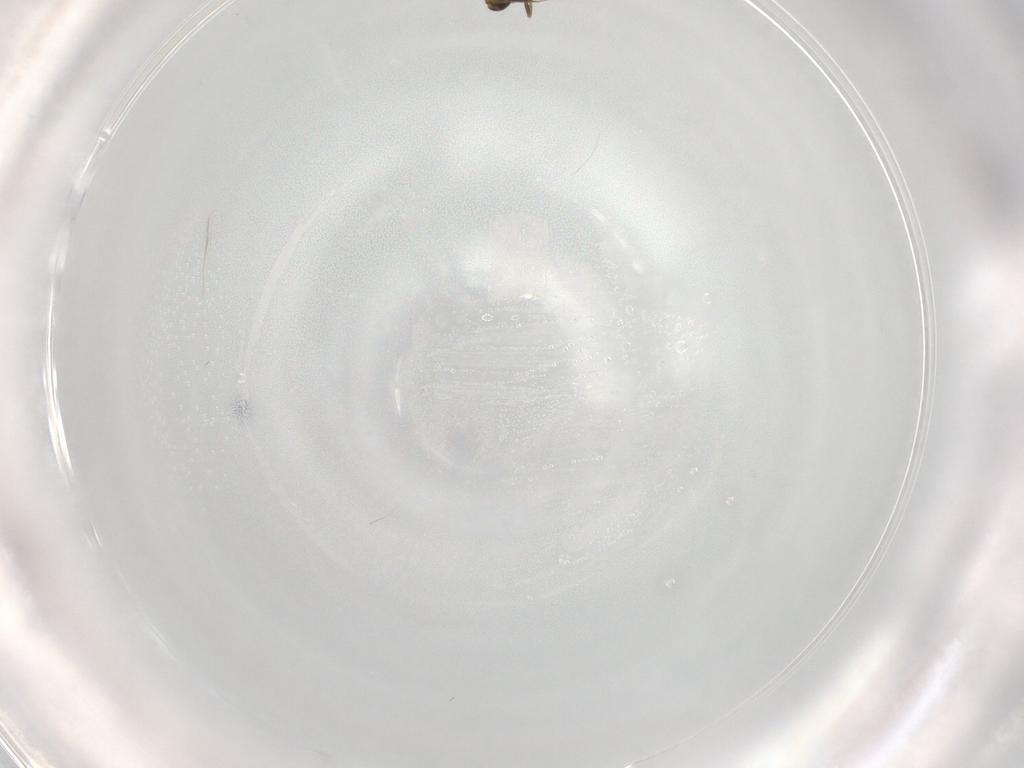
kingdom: Animalia
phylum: Arthropoda
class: Insecta
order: Hymenoptera
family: Trichogrammatidae
